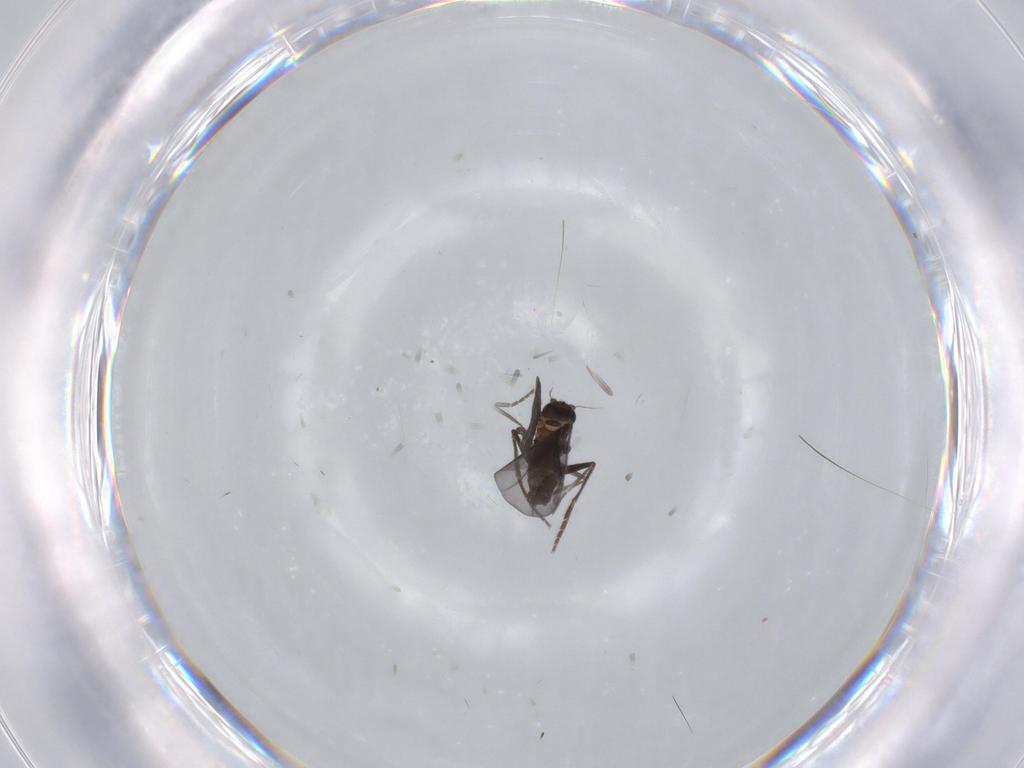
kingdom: Animalia
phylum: Arthropoda
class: Insecta
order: Diptera
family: Phoridae
